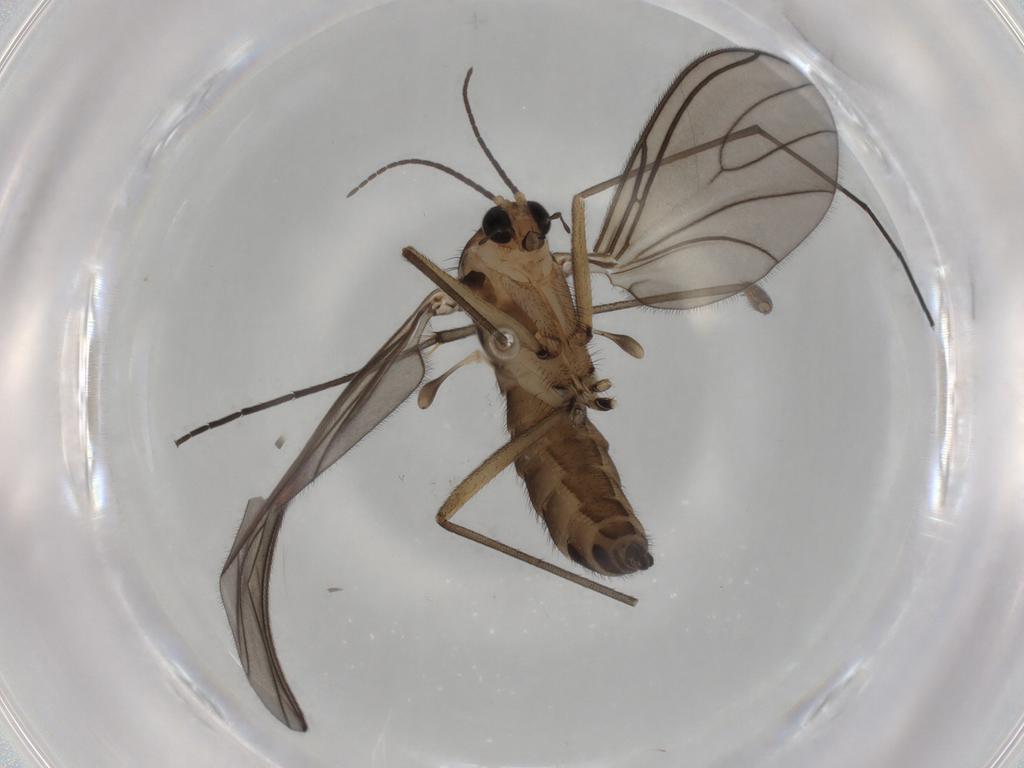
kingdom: Animalia
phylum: Arthropoda
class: Insecta
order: Diptera
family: Sciaridae
